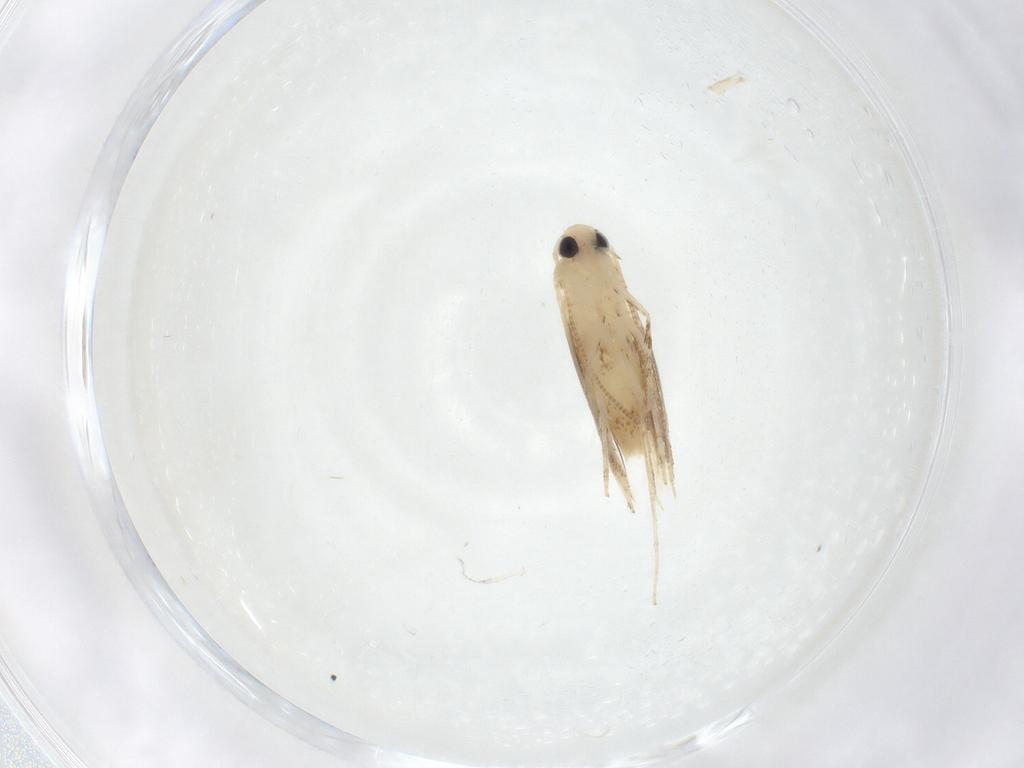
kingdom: Animalia
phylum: Arthropoda
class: Insecta
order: Lepidoptera
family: Gracillariidae
